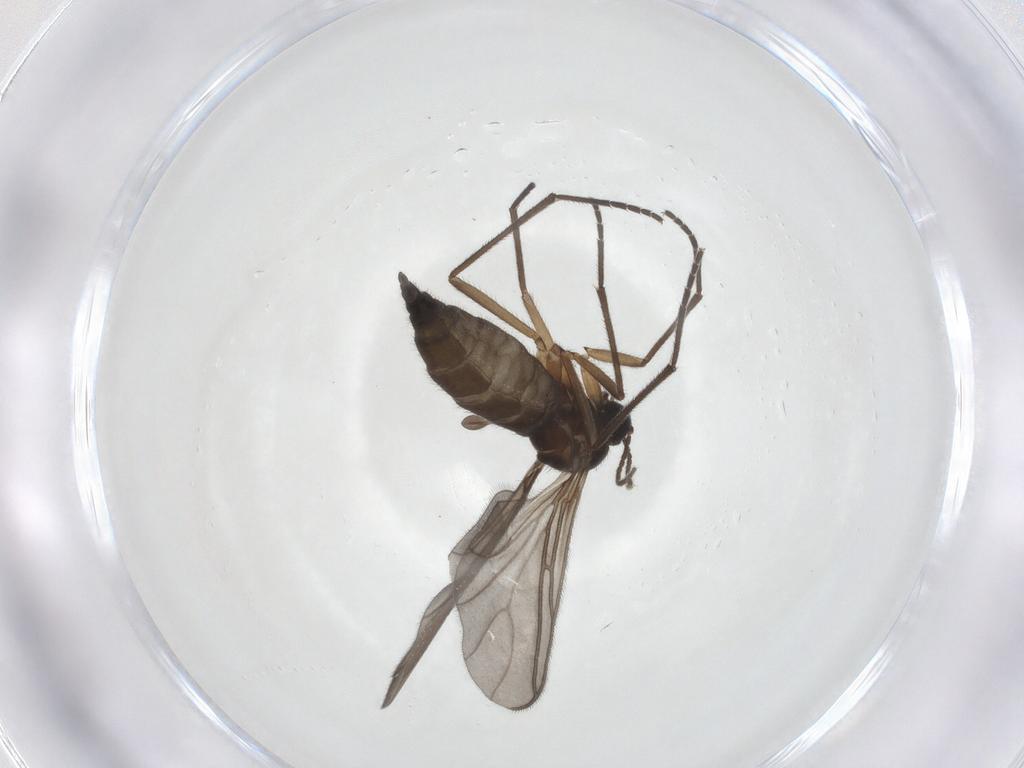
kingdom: Animalia
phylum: Arthropoda
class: Insecta
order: Diptera
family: Sciaridae
